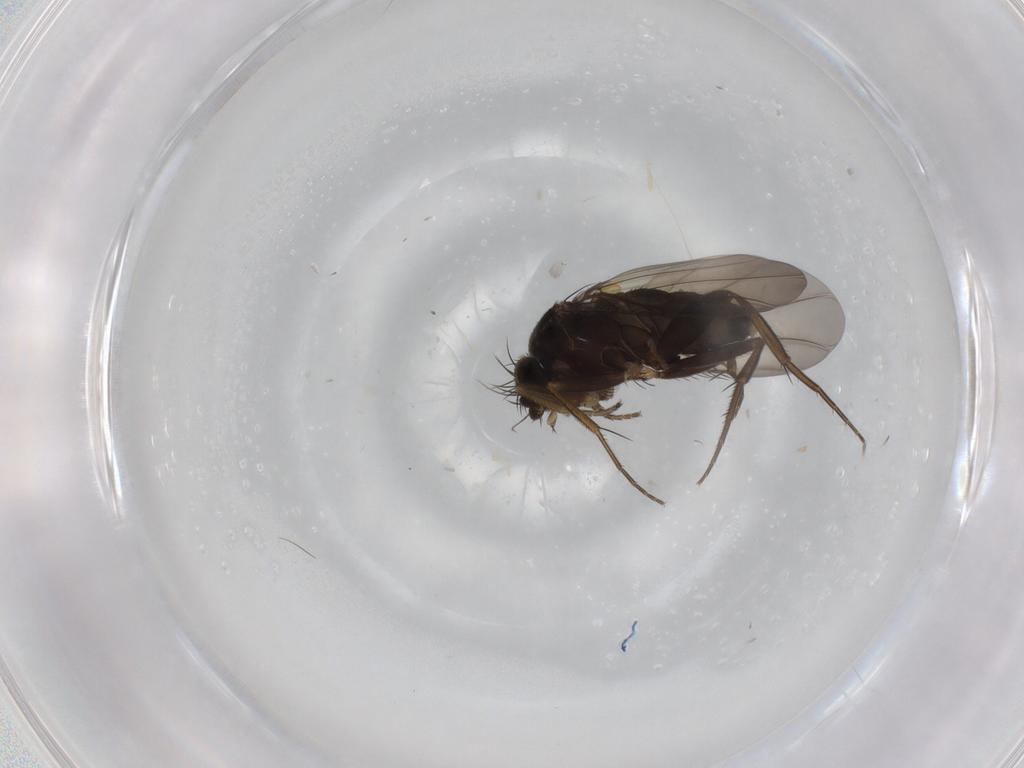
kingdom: Animalia
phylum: Arthropoda
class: Insecta
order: Diptera
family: Phoridae
